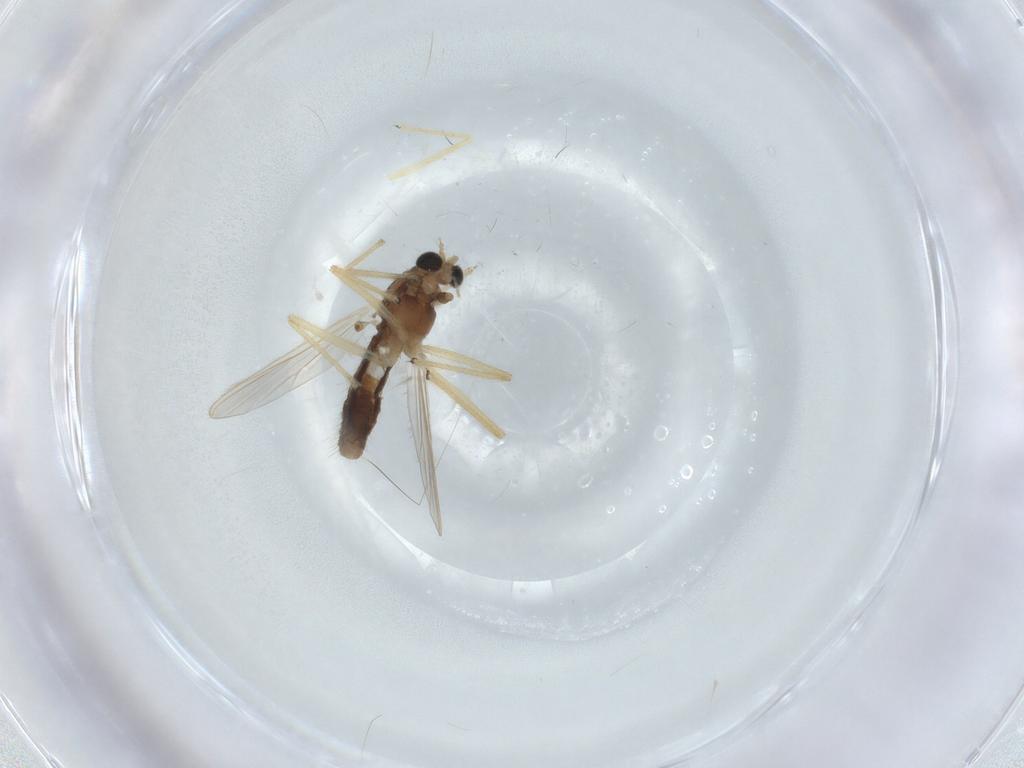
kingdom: Animalia
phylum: Arthropoda
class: Insecta
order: Diptera
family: Chironomidae
